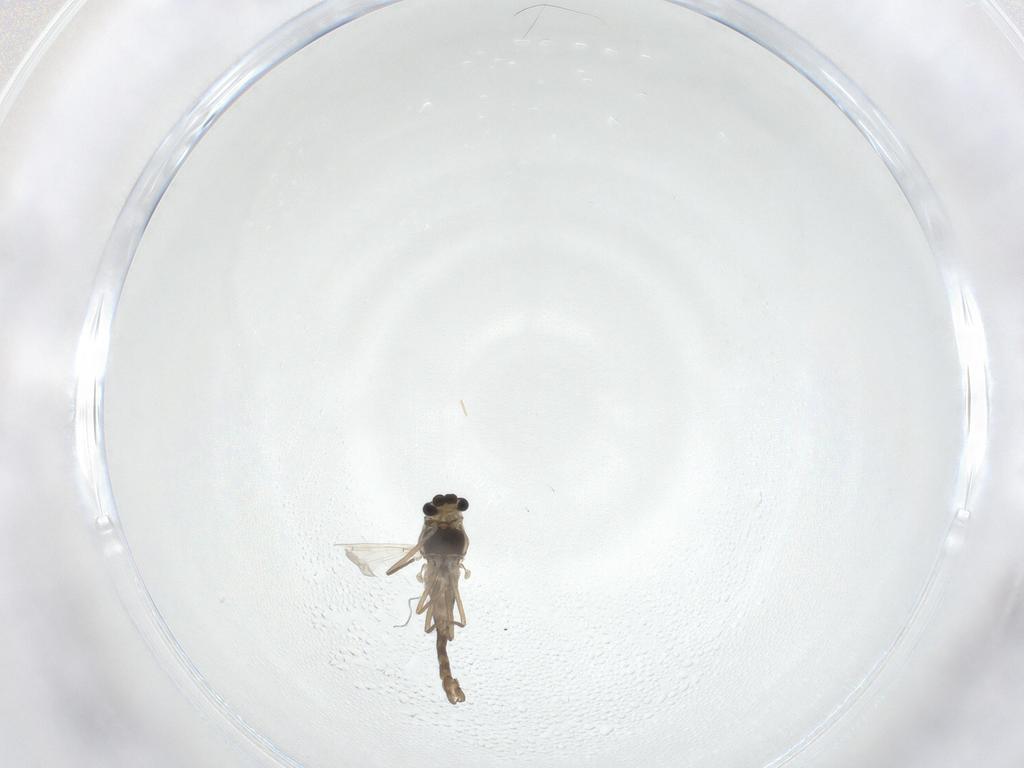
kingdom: Animalia
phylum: Arthropoda
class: Insecta
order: Diptera
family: Chironomidae
